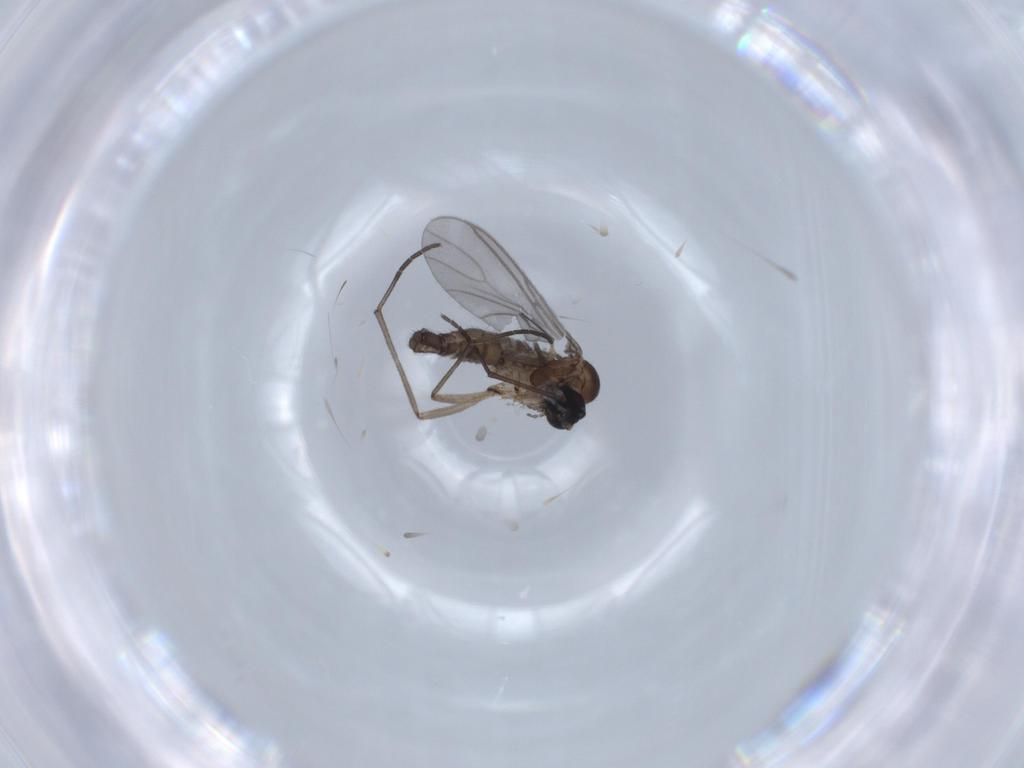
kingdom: Animalia
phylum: Arthropoda
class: Insecta
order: Diptera
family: Sciaridae
